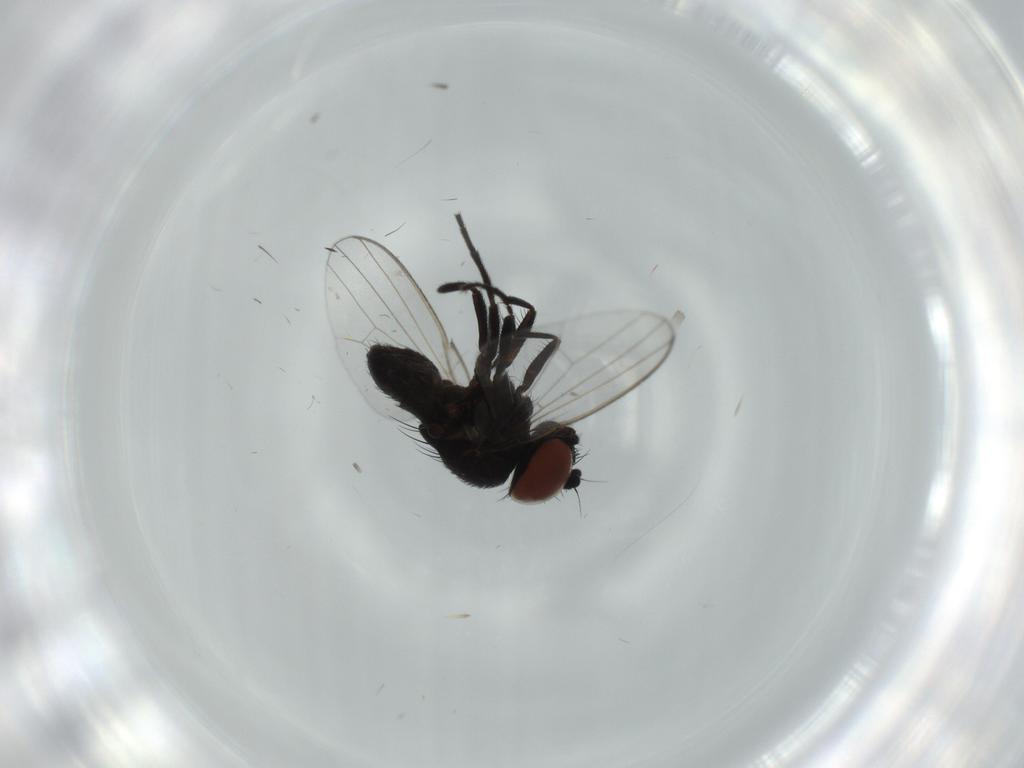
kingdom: Animalia
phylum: Arthropoda
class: Insecta
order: Diptera
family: Milichiidae
